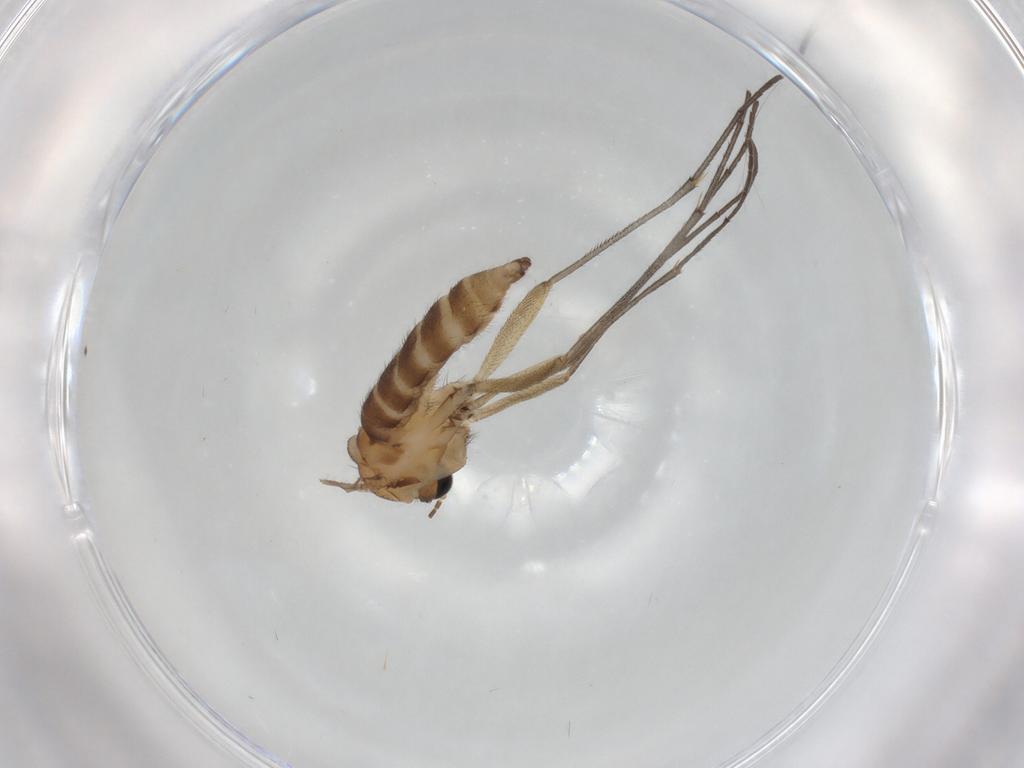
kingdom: Animalia
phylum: Arthropoda
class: Insecta
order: Diptera
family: Sciaridae
